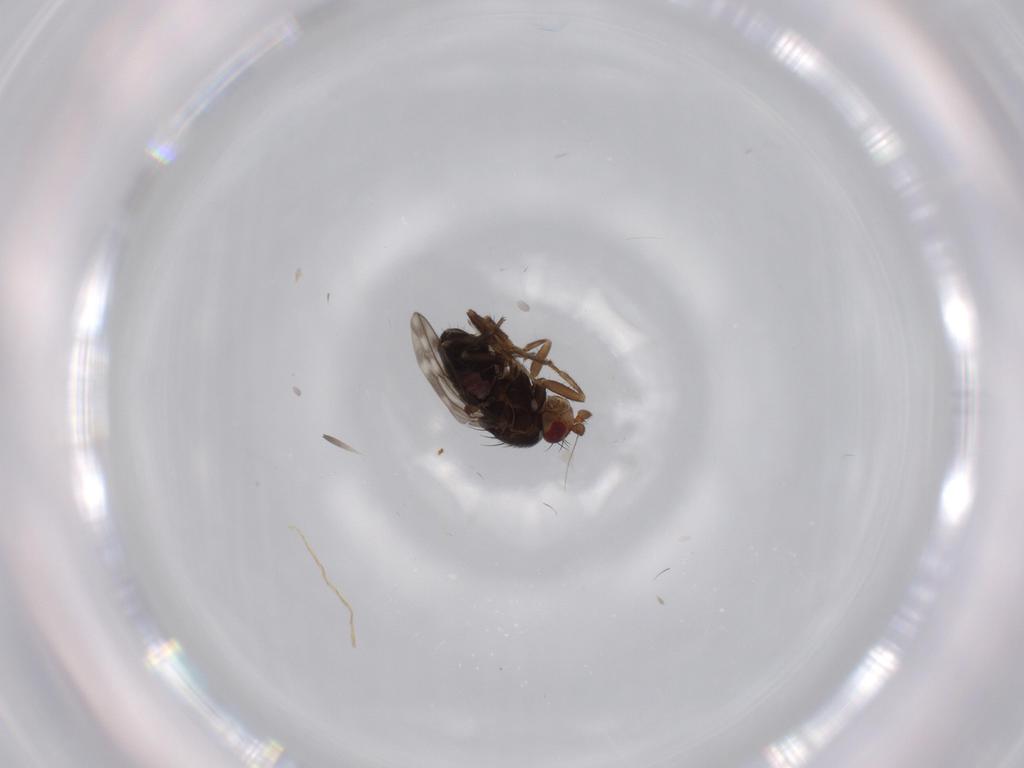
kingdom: Animalia
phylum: Arthropoda
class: Insecta
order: Diptera
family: Sphaeroceridae
